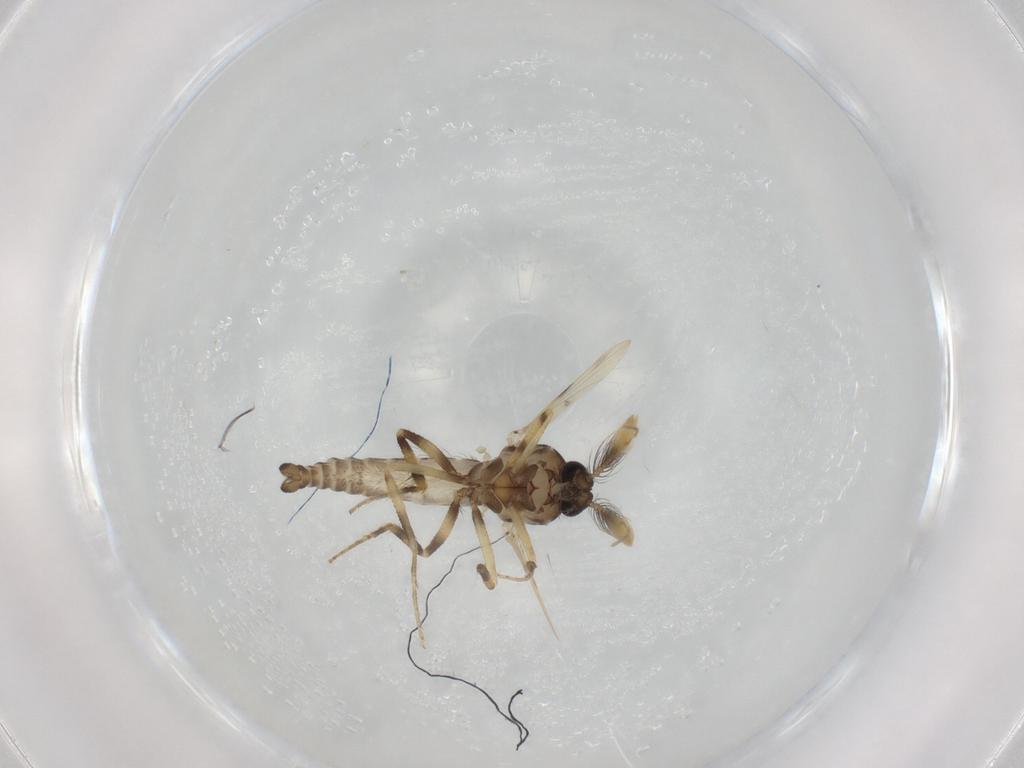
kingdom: Animalia
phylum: Arthropoda
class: Insecta
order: Diptera
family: Ceratopogonidae
